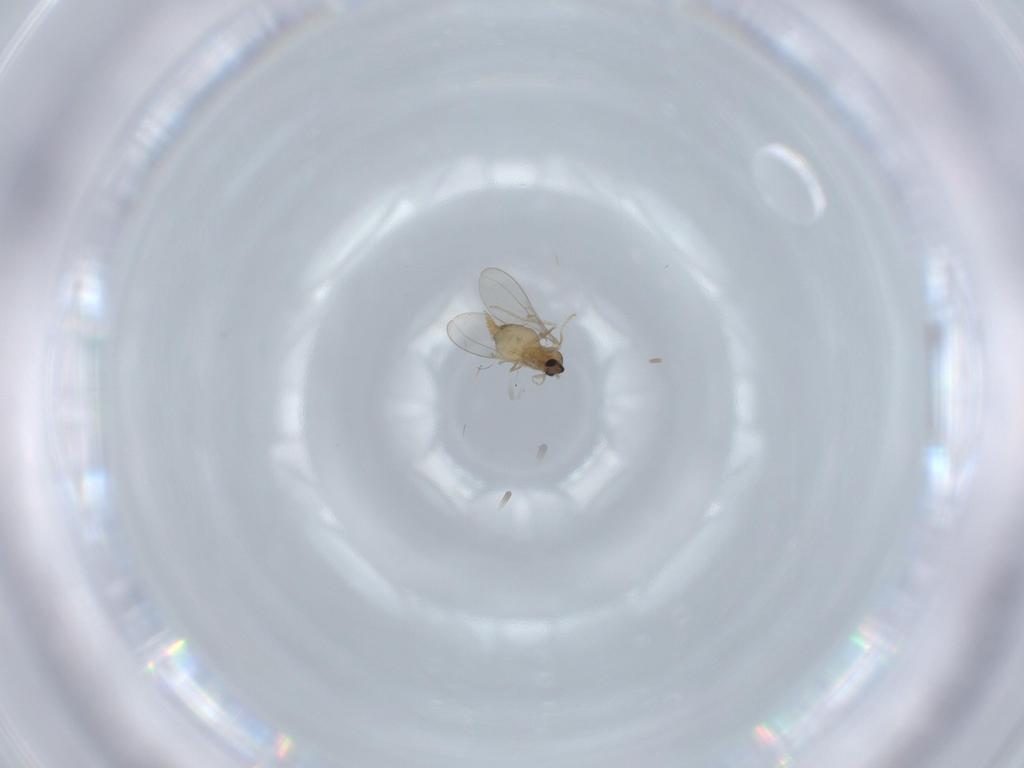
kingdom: Animalia
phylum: Arthropoda
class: Insecta
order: Diptera
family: Cecidomyiidae
